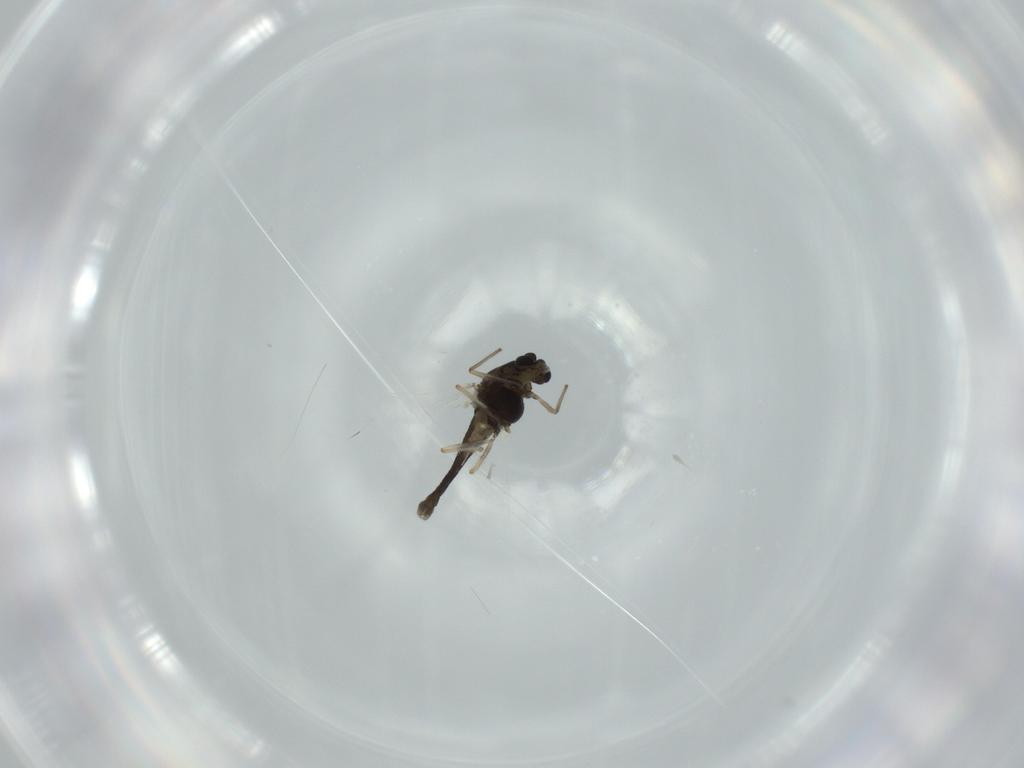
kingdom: Animalia
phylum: Arthropoda
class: Insecta
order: Diptera
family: Chironomidae
